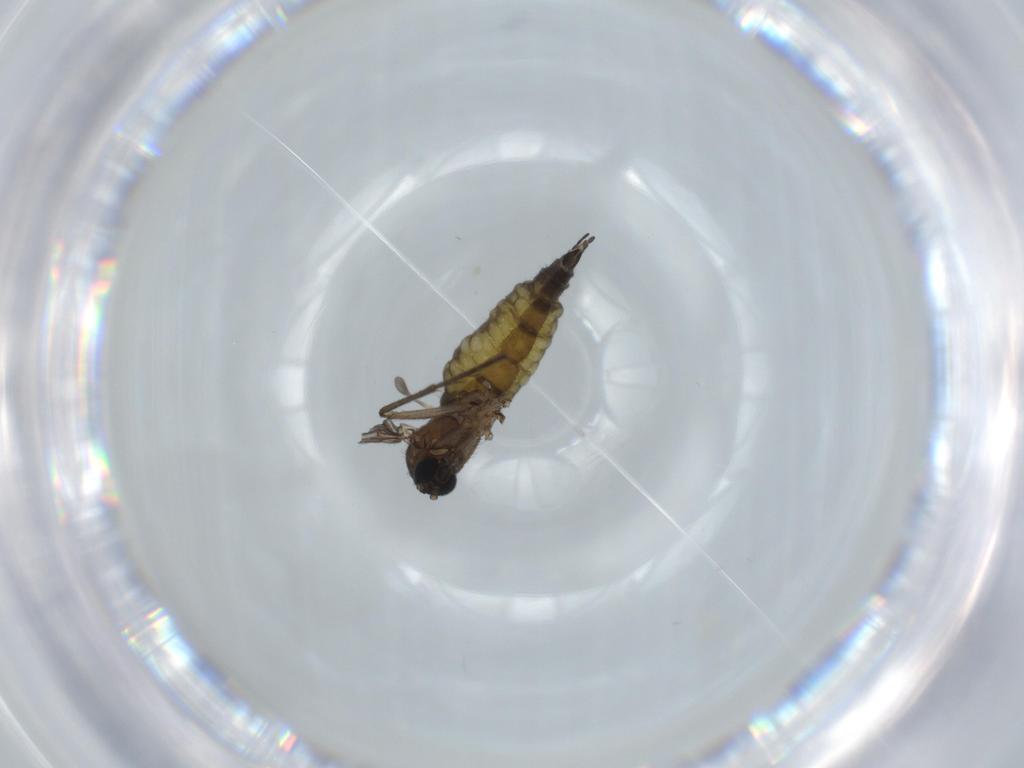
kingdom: Animalia
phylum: Arthropoda
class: Insecta
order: Diptera
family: Sciaridae
